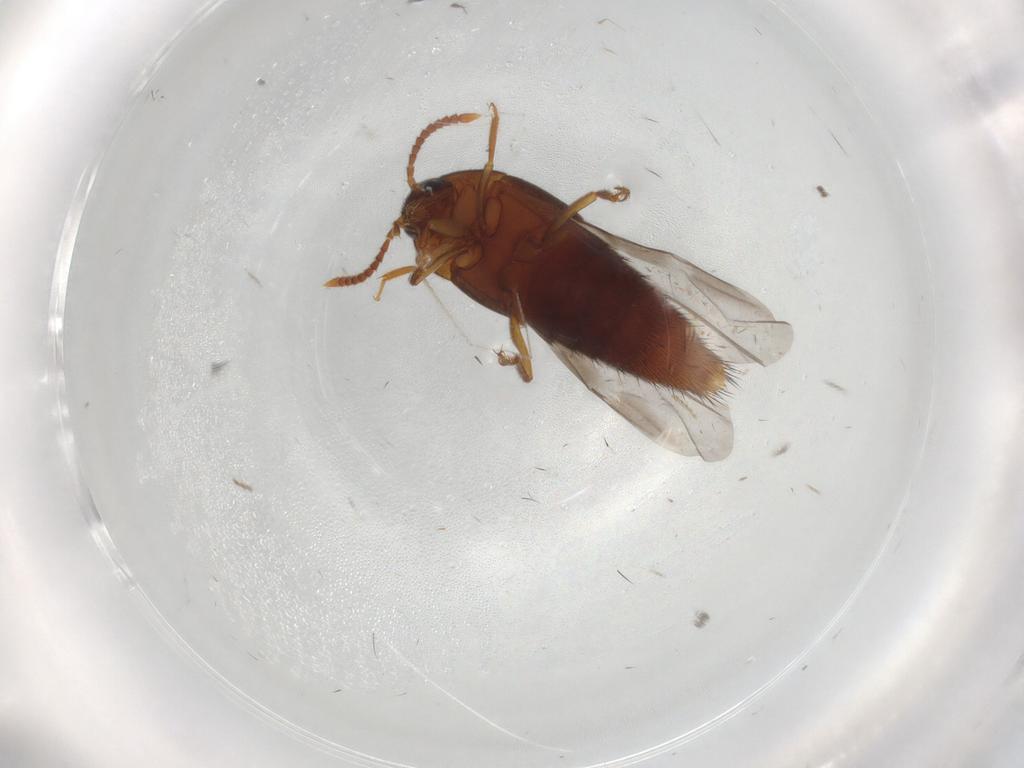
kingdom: Animalia
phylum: Arthropoda
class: Insecta
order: Coleoptera
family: Staphylinidae
